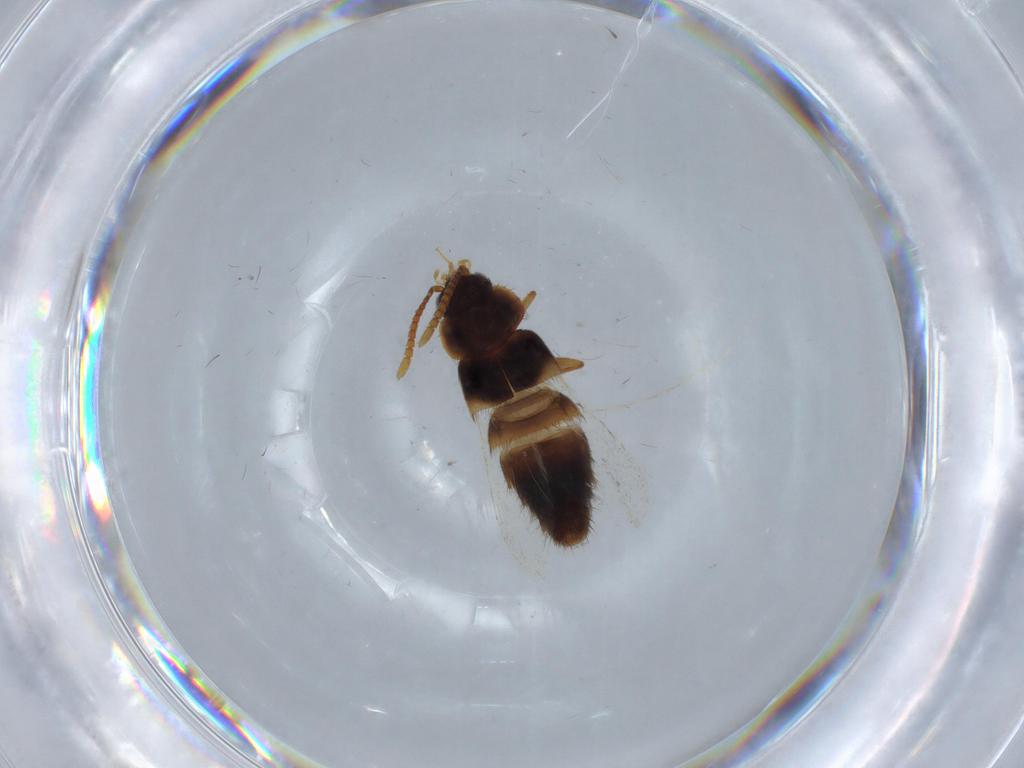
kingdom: Animalia
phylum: Arthropoda
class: Insecta
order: Coleoptera
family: Staphylinidae
